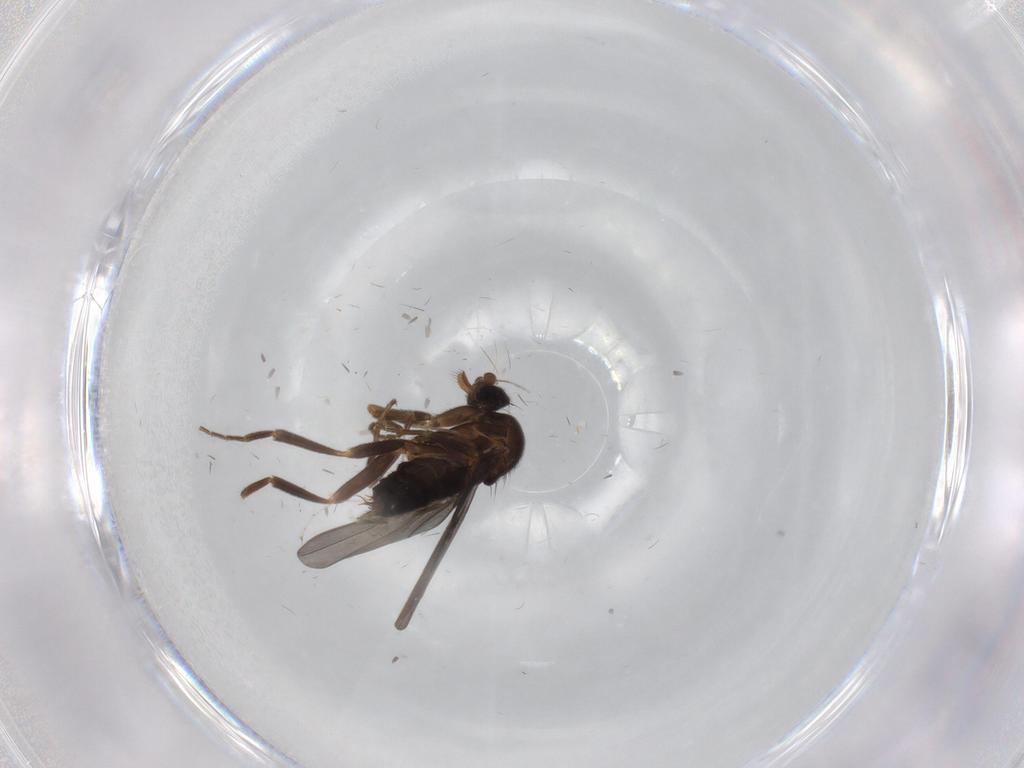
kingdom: Animalia
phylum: Arthropoda
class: Insecta
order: Diptera
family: Phoridae
